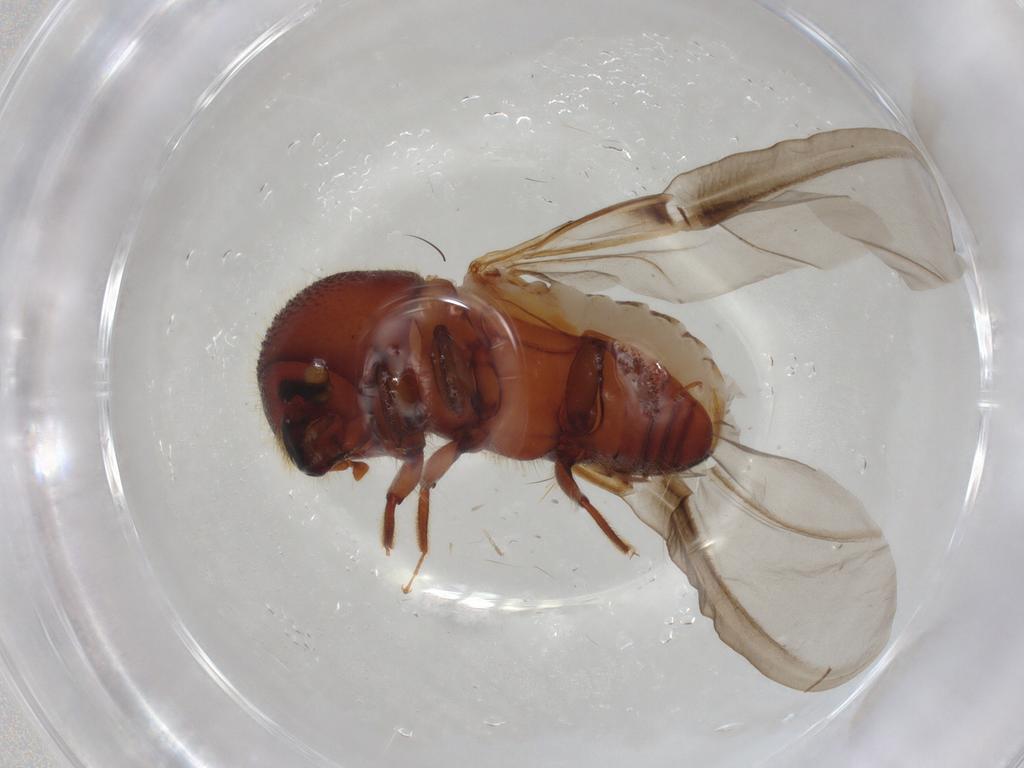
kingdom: Animalia
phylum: Arthropoda
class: Insecta
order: Coleoptera
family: Curculionidae
